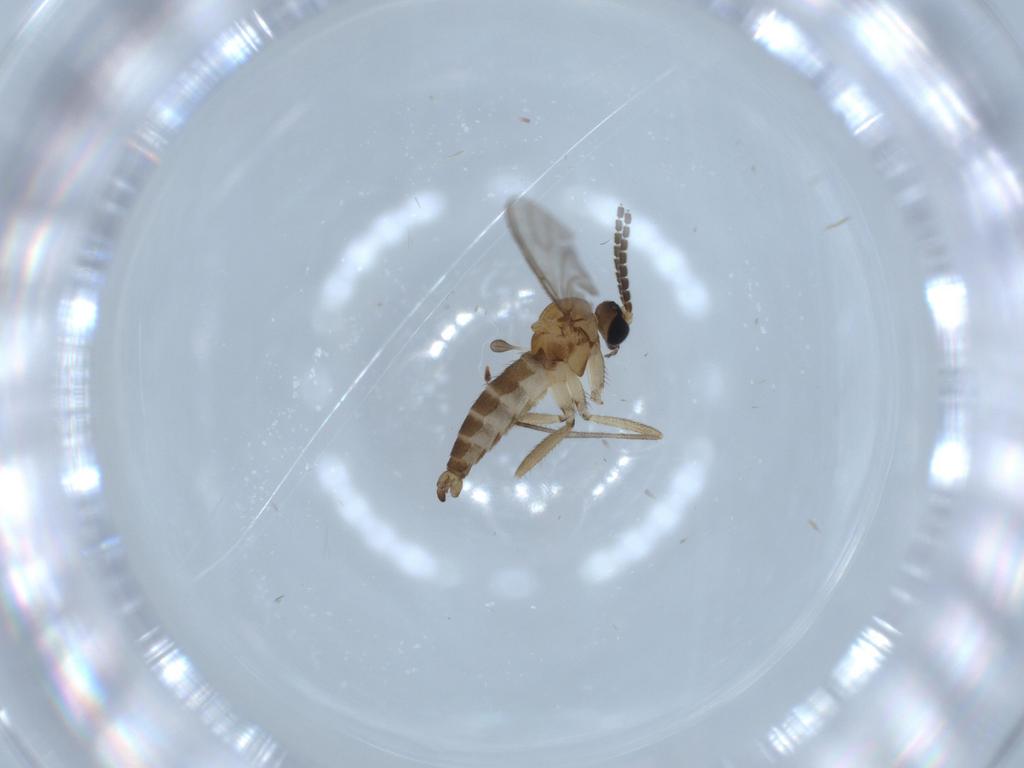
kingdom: Animalia
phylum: Arthropoda
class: Insecta
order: Diptera
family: Sciaridae
